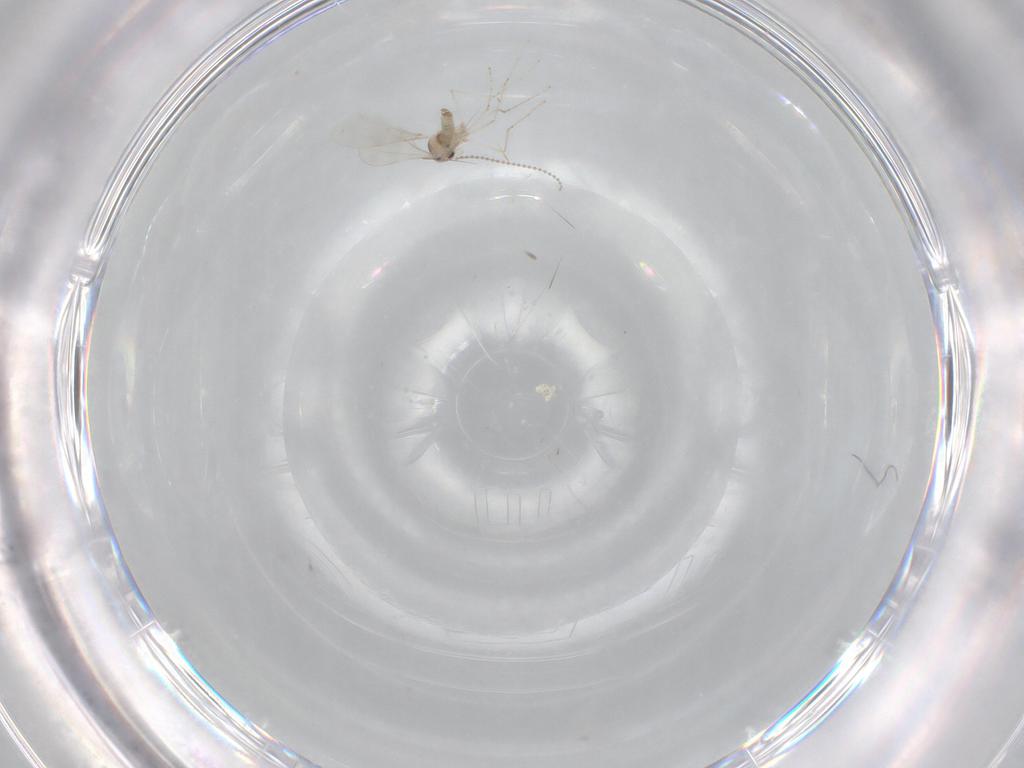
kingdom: Animalia
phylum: Arthropoda
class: Insecta
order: Diptera
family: Cecidomyiidae
